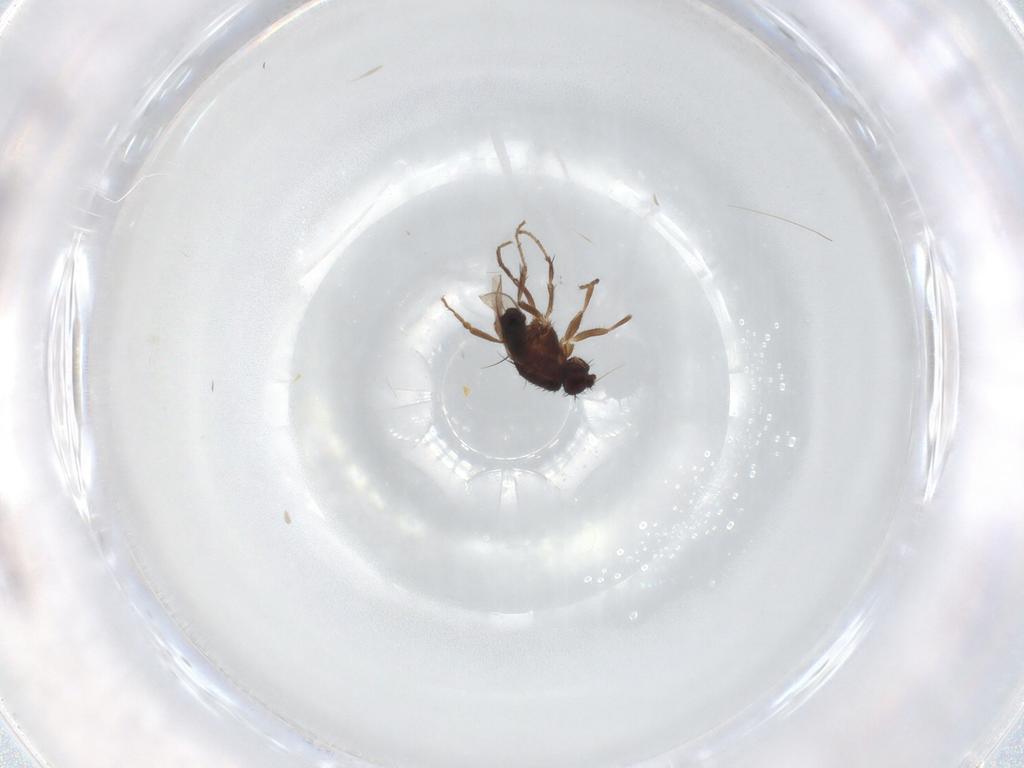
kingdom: Animalia
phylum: Arthropoda
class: Insecta
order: Diptera
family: Sphaeroceridae
